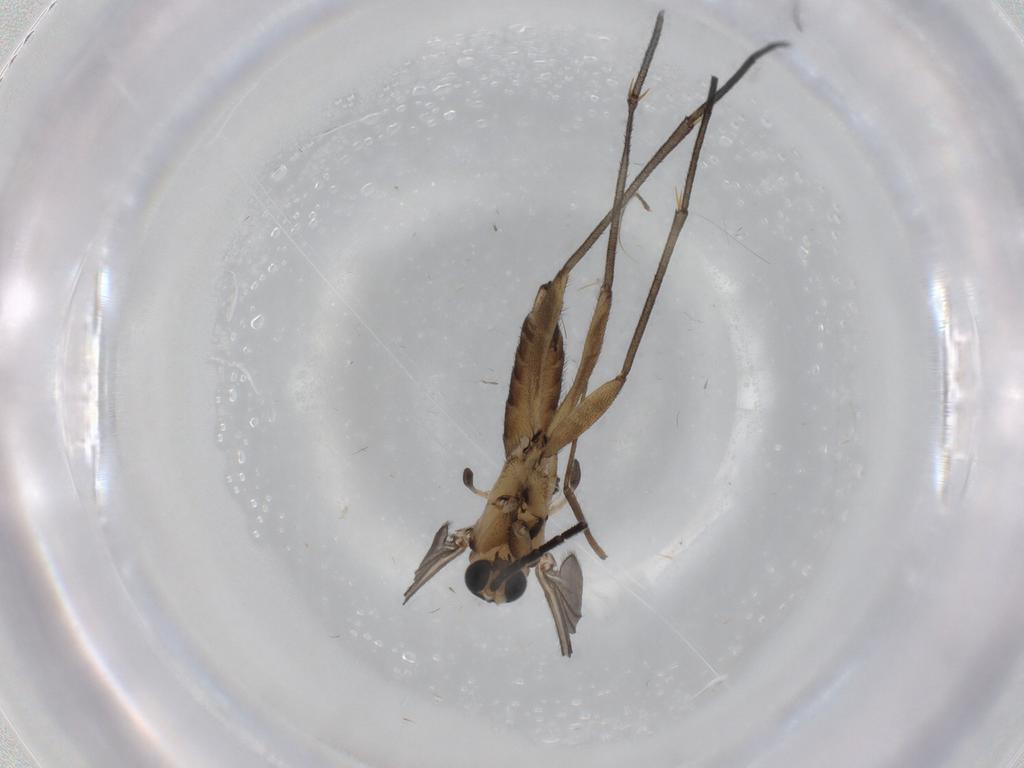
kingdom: Animalia
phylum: Arthropoda
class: Insecta
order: Diptera
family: Sciaridae
